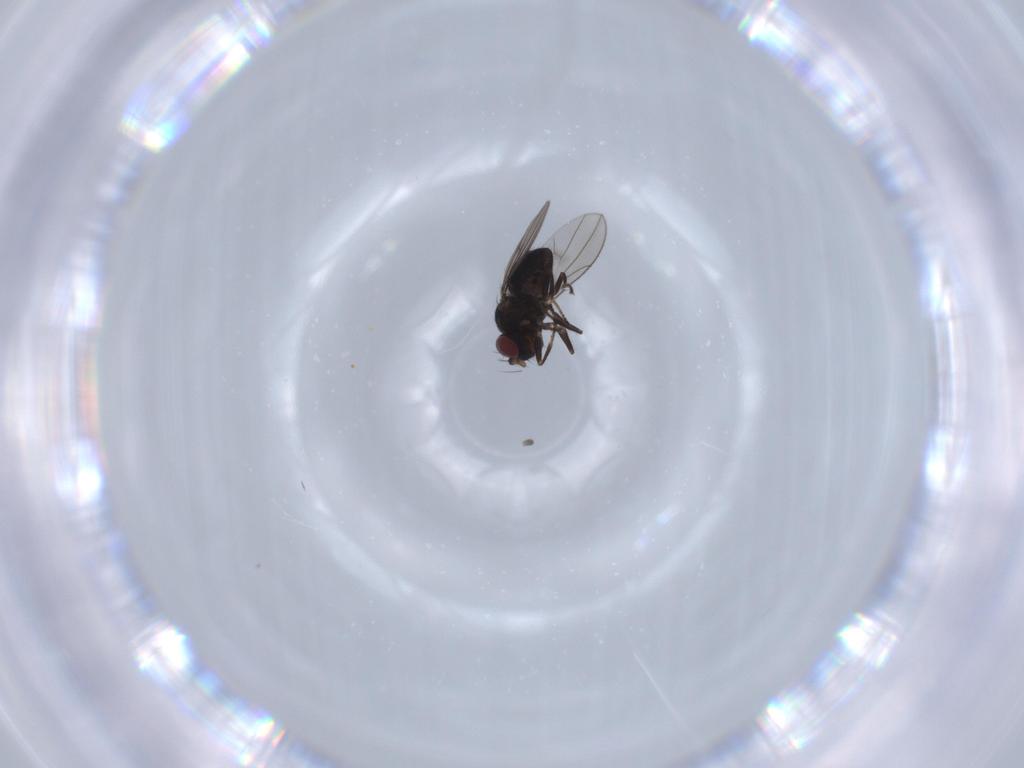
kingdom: Animalia
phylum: Arthropoda
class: Insecta
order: Diptera
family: Ephydridae
